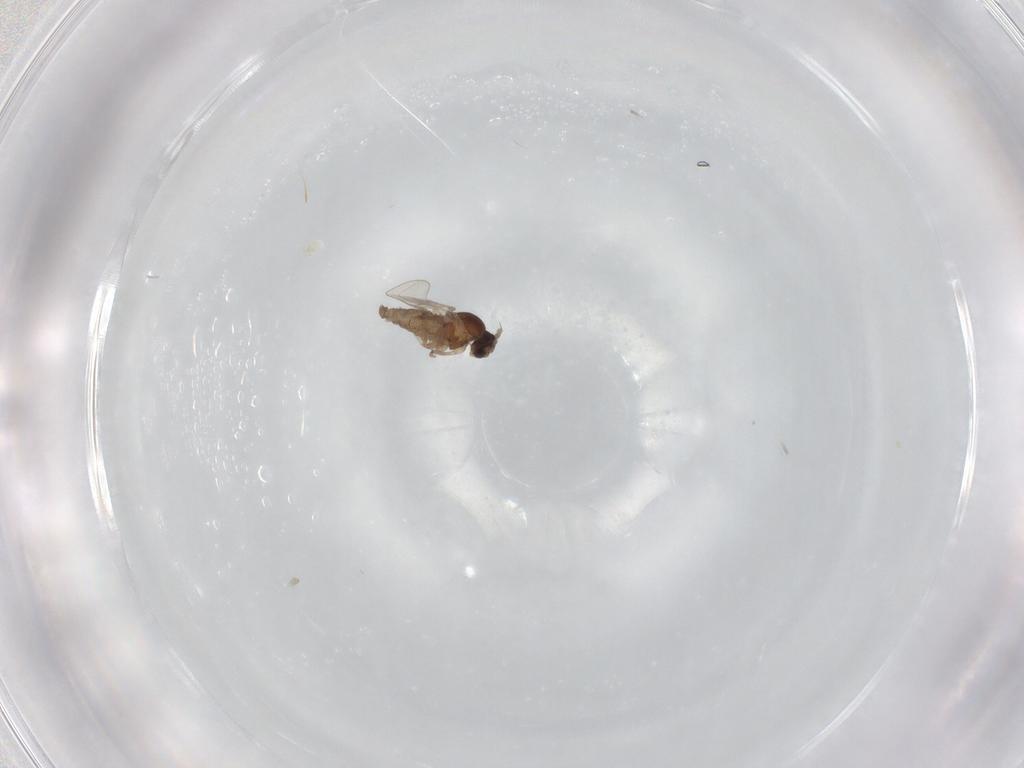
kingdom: Animalia
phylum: Arthropoda
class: Insecta
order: Diptera
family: Cecidomyiidae
